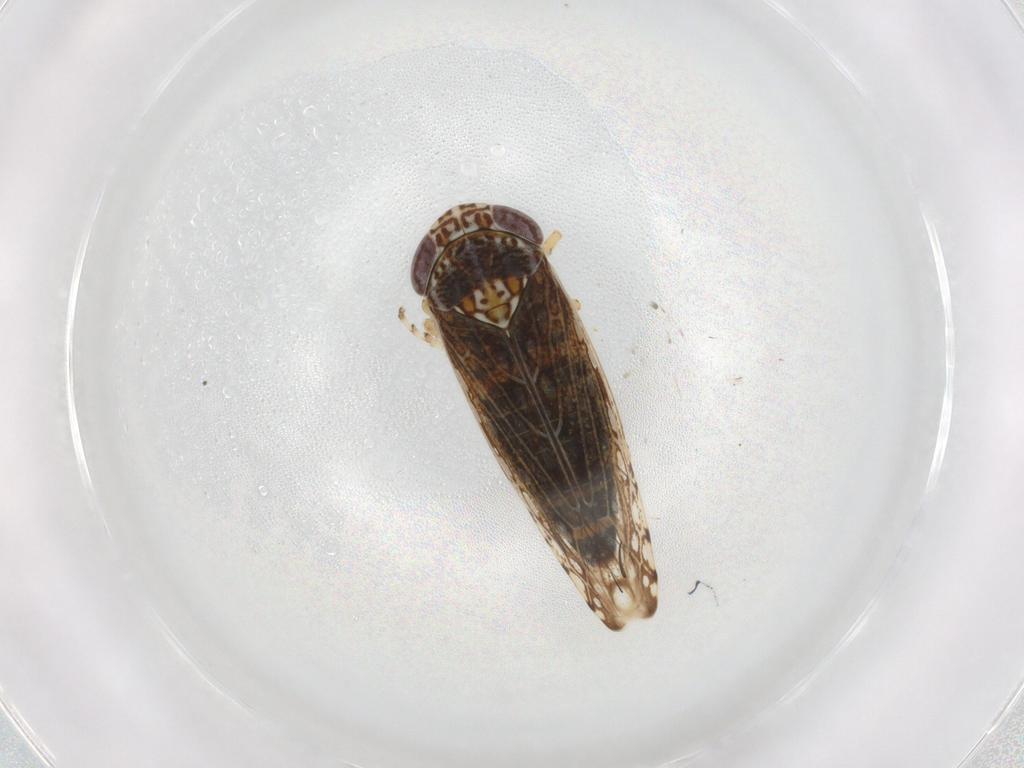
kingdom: Animalia
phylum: Arthropoda
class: Insecta
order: Hemiptera
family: Cicadellidae
